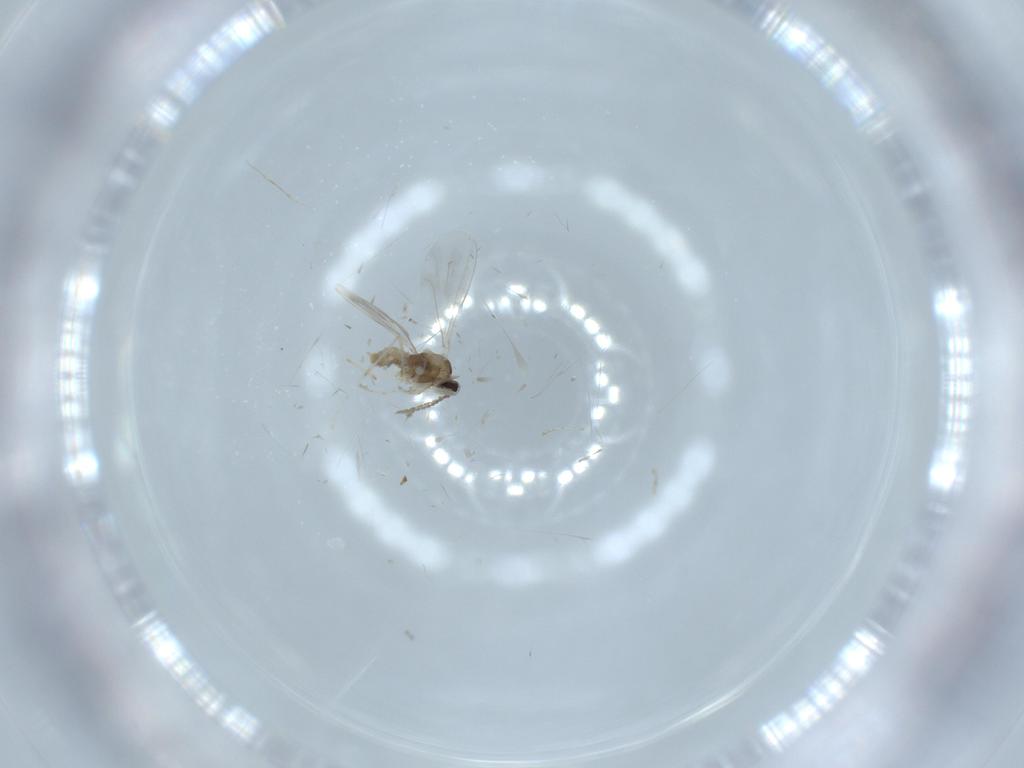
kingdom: Animalia
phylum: Arthropoda
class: Insecta
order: Diptera
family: Cecidomyiidae
